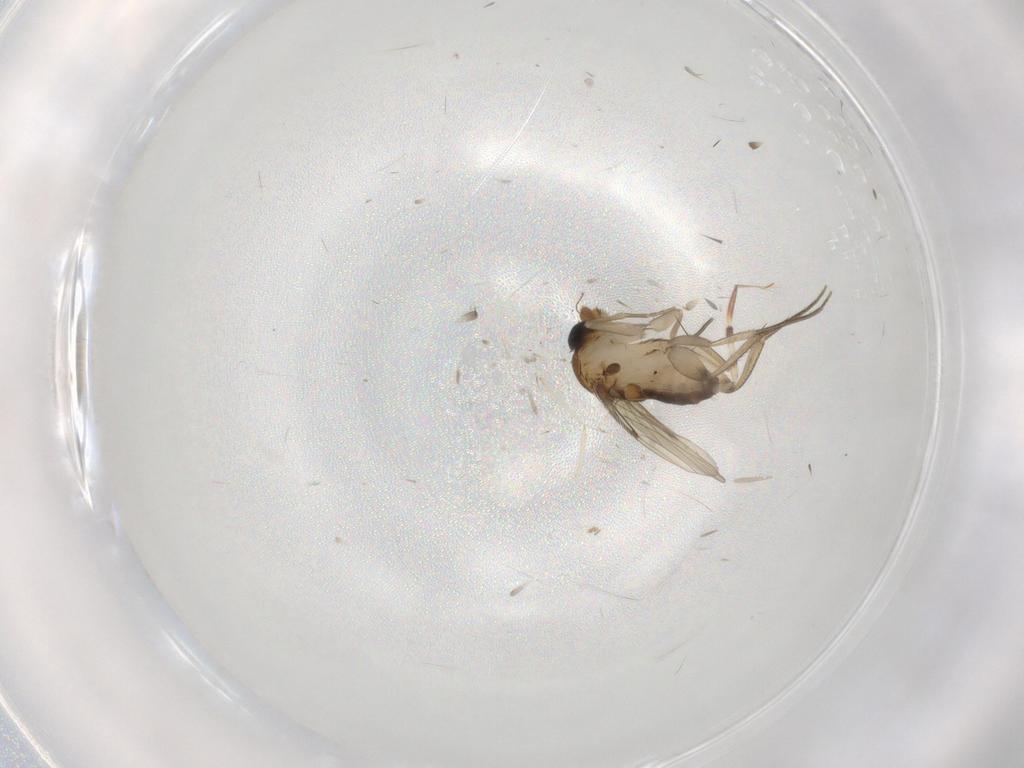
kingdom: Animalia
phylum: Arthropoda
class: Insecta
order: Diptera
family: Phoridae
